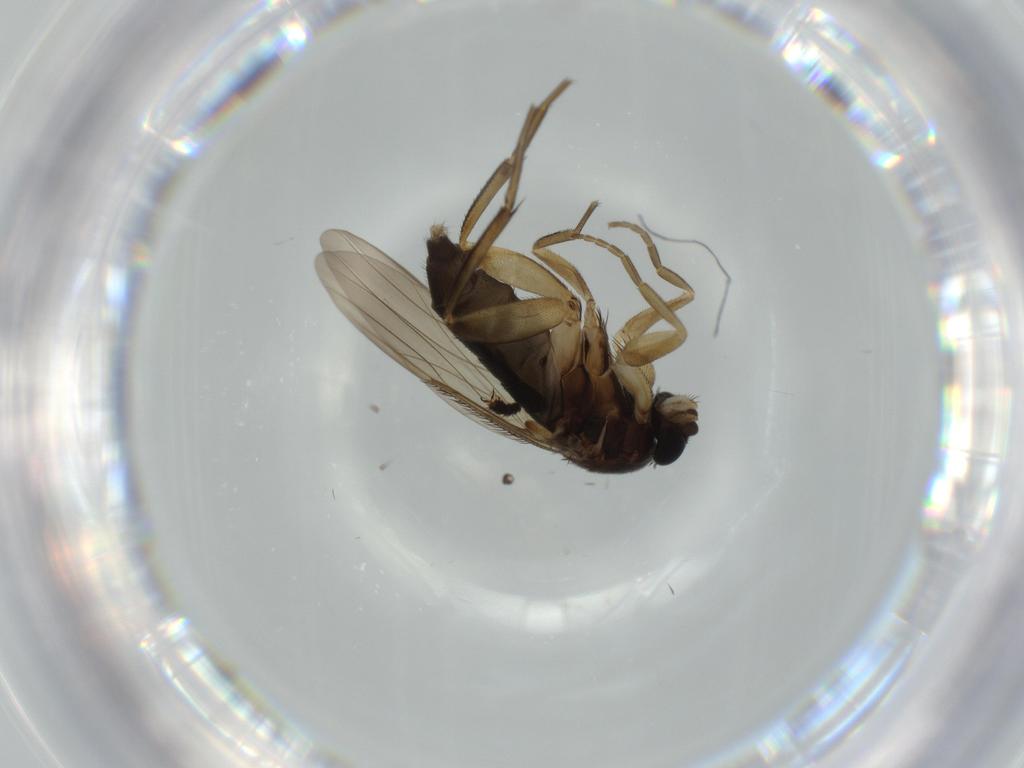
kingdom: Animalia
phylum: Arthropoda
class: Insecta
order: Diptera
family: Phoridae
